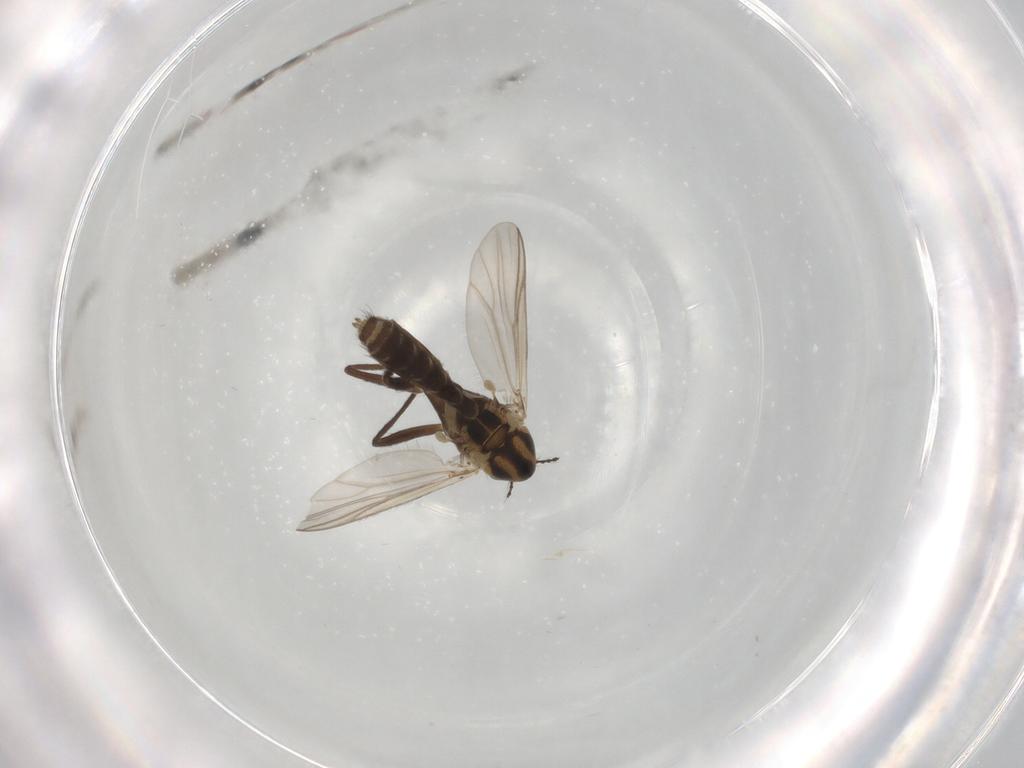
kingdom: Animalia
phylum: Arthropoda
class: Insecta
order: Diptera
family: Chironomidae
